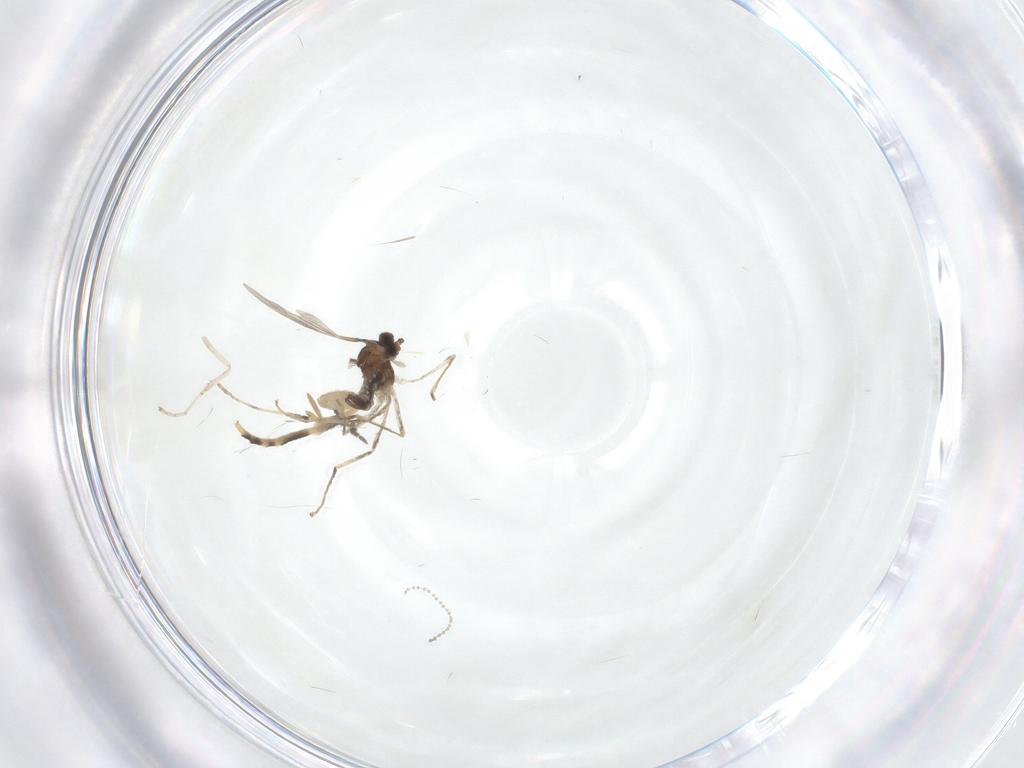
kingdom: Animalia
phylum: Arthropoda
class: Insecta
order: Diptera
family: Cecidomyiidae
